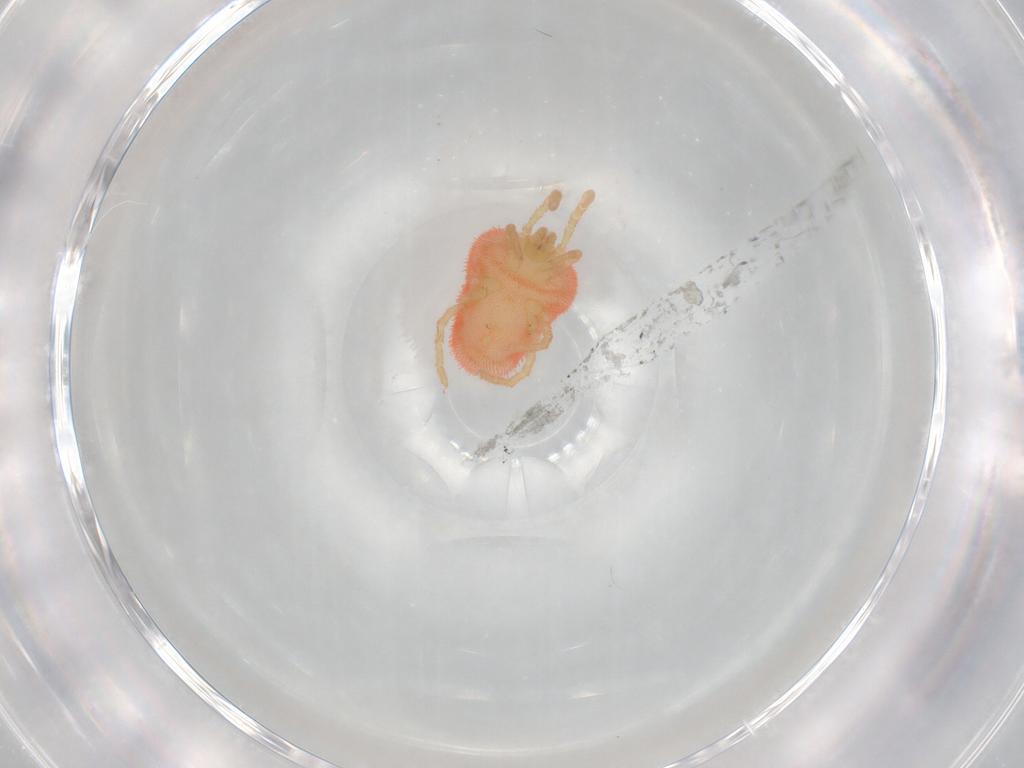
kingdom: Animalia
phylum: Arthropoda
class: Arachnida
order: Trombidiformes
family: Trombidiidae
